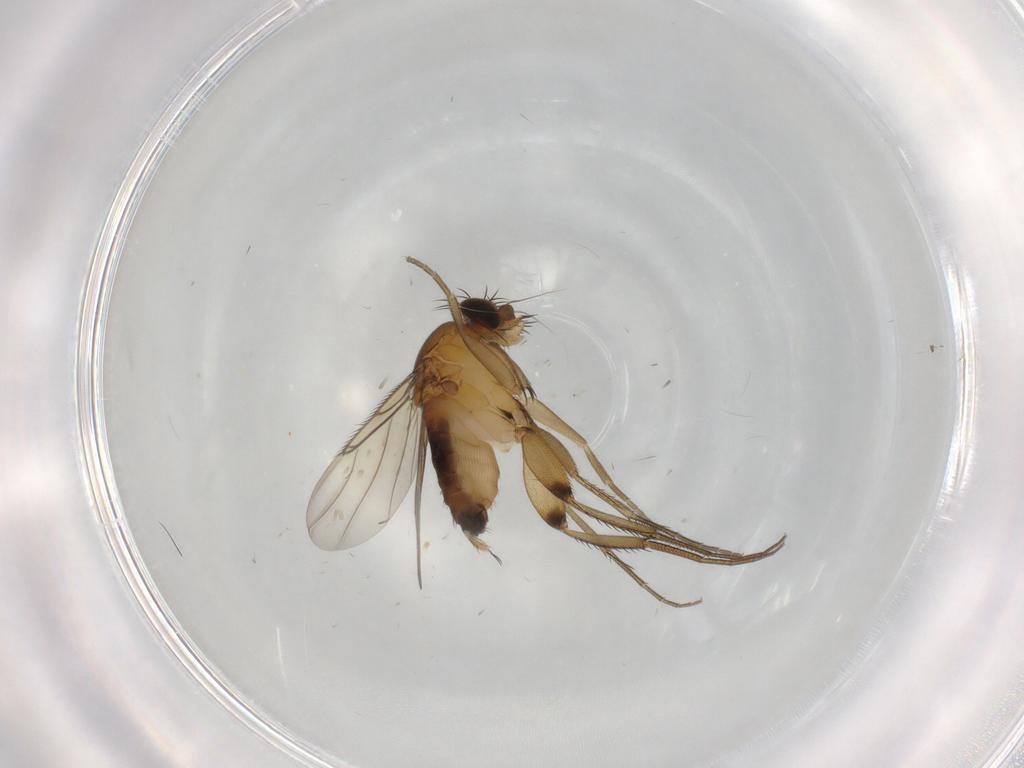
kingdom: Animalia
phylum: Arthropoda
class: Insecta
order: Diptera
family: Phoridae
